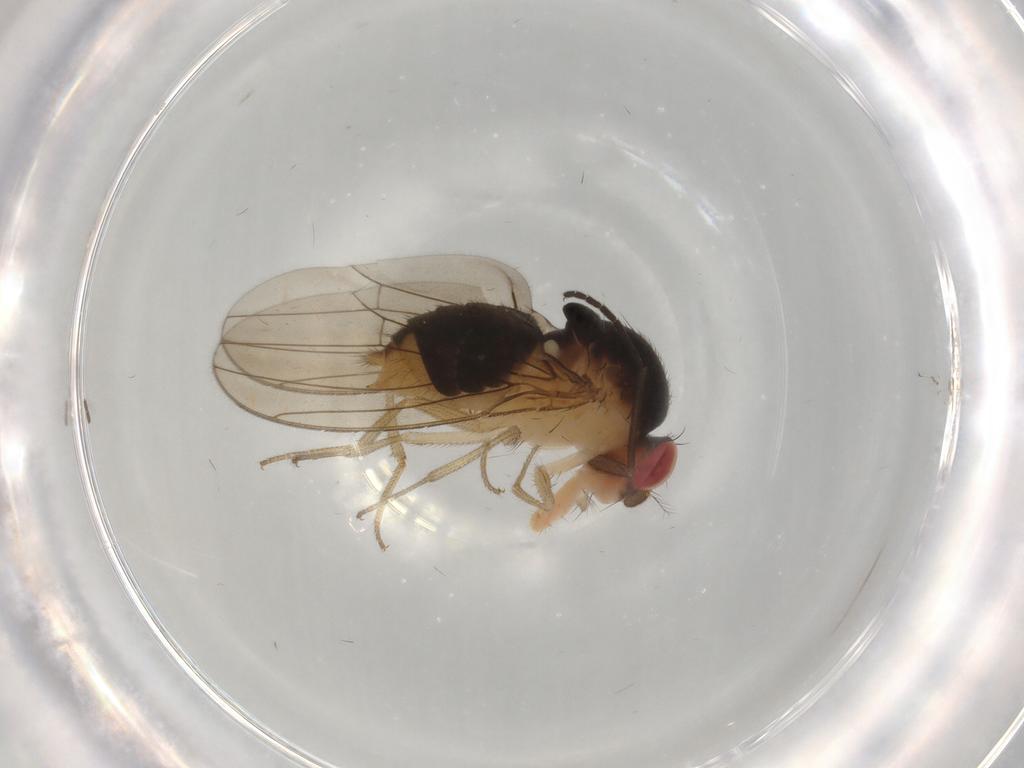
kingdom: Animalia
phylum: Arthropoda
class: Insecta
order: Diptera
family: Drosophilidae
